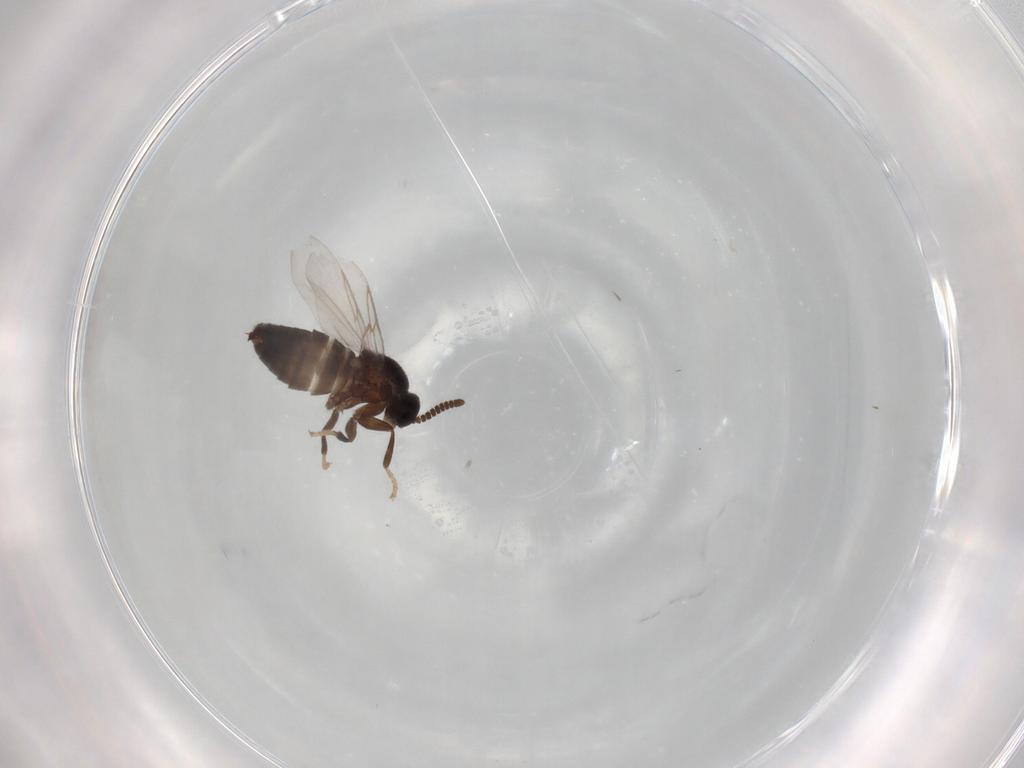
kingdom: Animalia
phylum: Arthropoda
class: Insecta
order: Diptera
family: Scatopsidae
